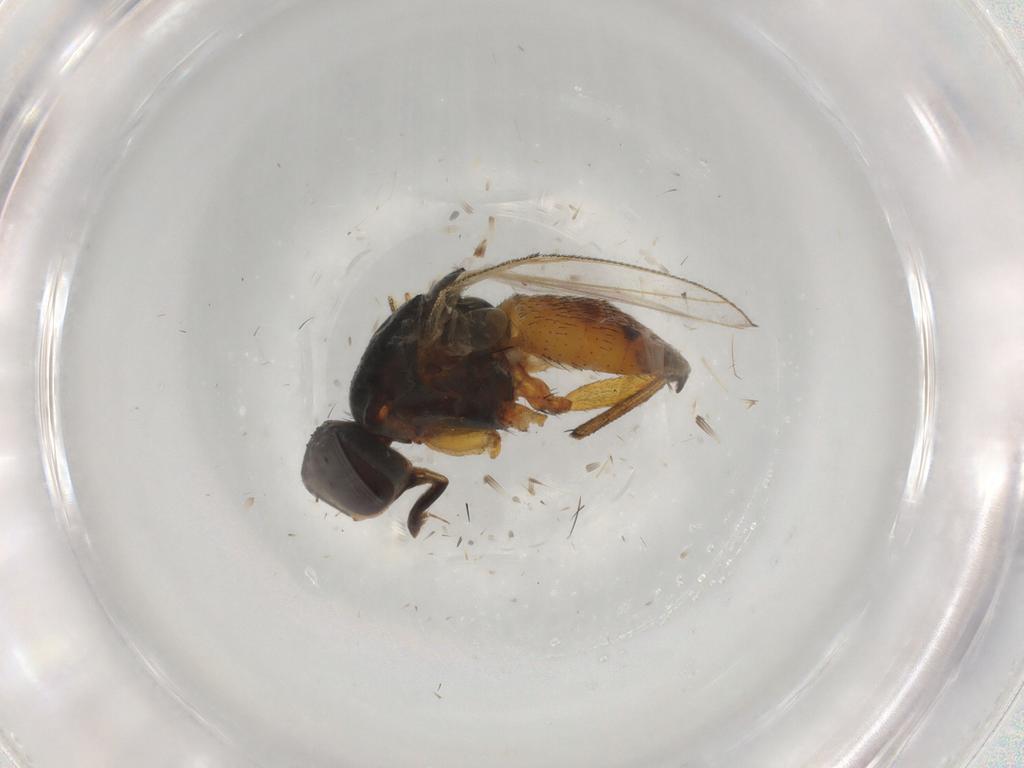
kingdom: Animalia
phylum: Arthropoda
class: Insecta
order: Diptera
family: Muscidae
